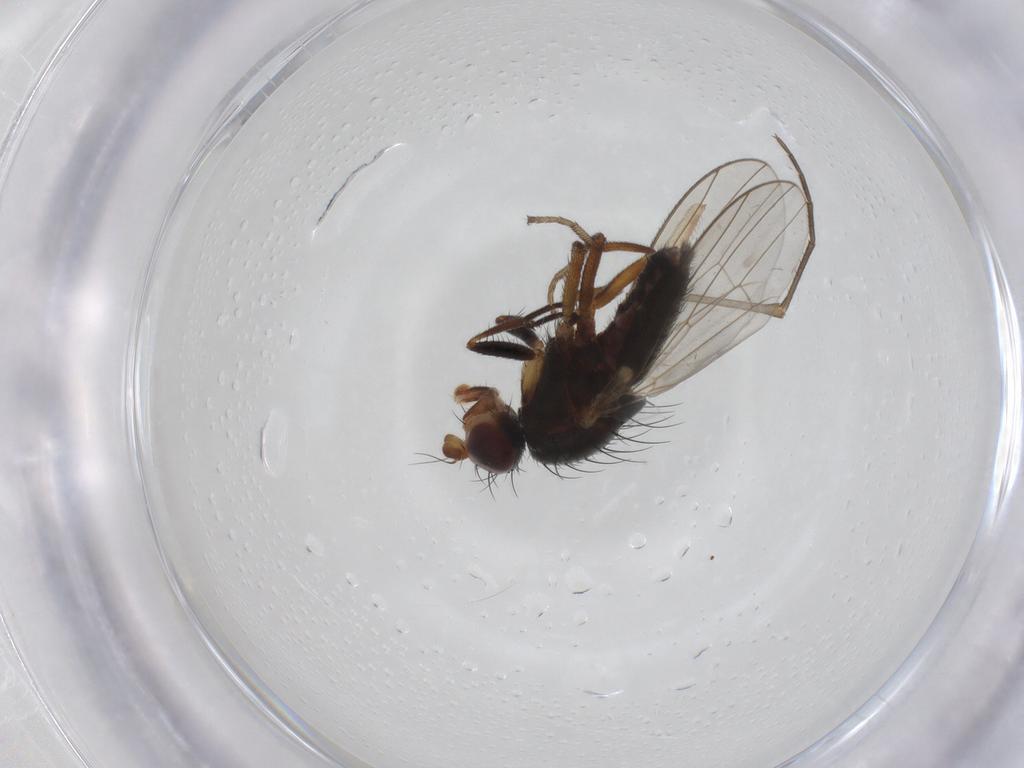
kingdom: Animalia
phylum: Arthropoda
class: Insecta
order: Diptera
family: Heleomyzidae
